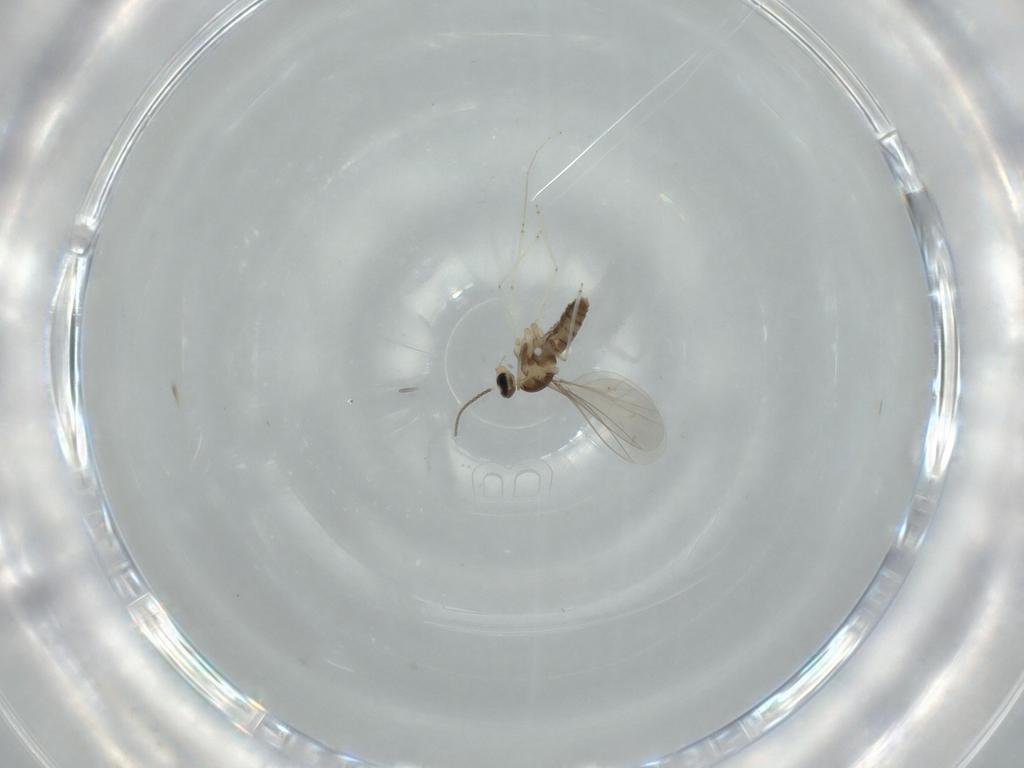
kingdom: Animalia
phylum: Arthropoda
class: Insecta
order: Diptera
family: Cecidomyiidae
